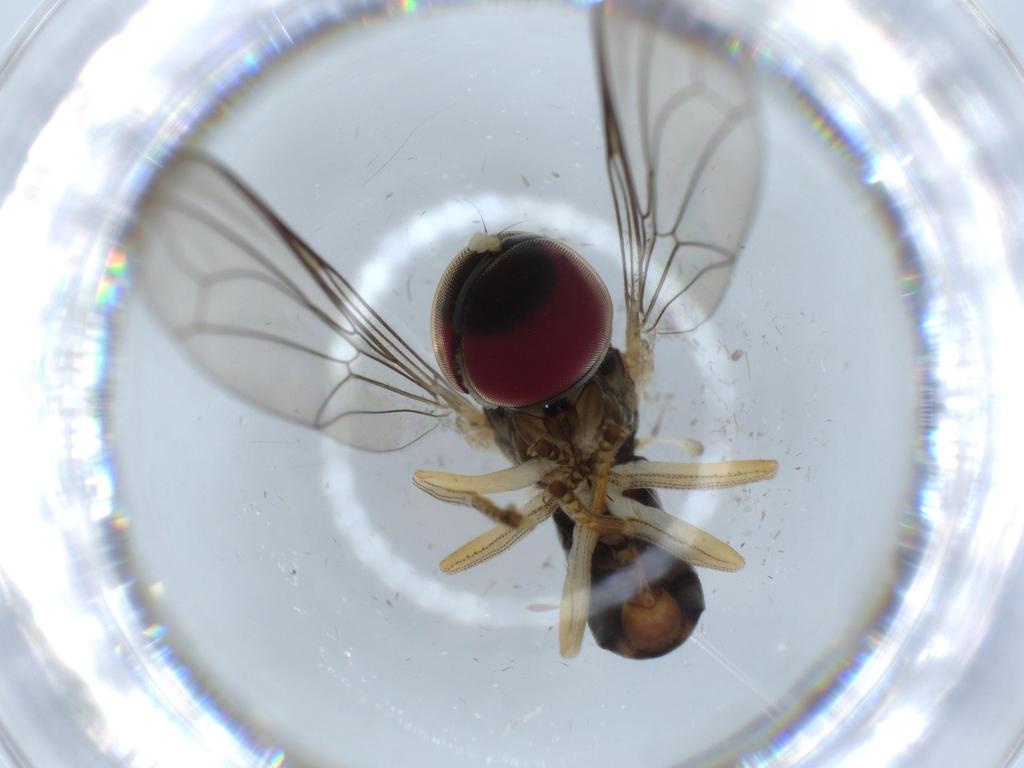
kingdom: Animalia
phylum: Arthropoda
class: Insecta
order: Diptera
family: Pipunculidae
